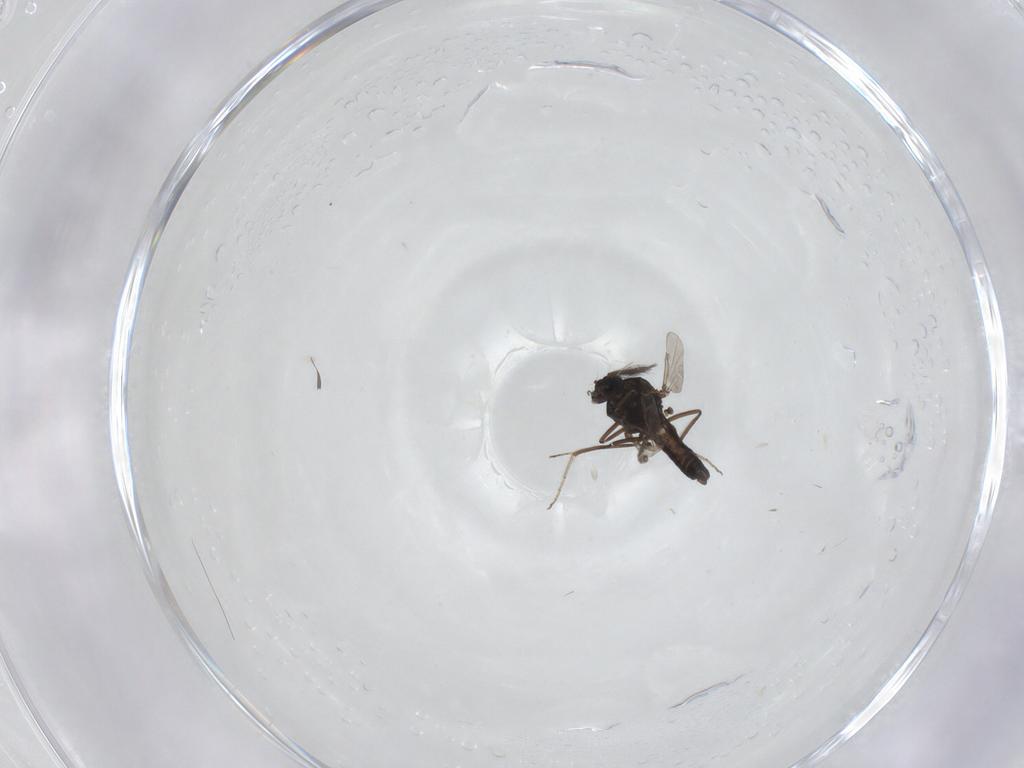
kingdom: Animalia
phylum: Arthropoda
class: Insecta
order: Diptera
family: Ceratopogonidae
